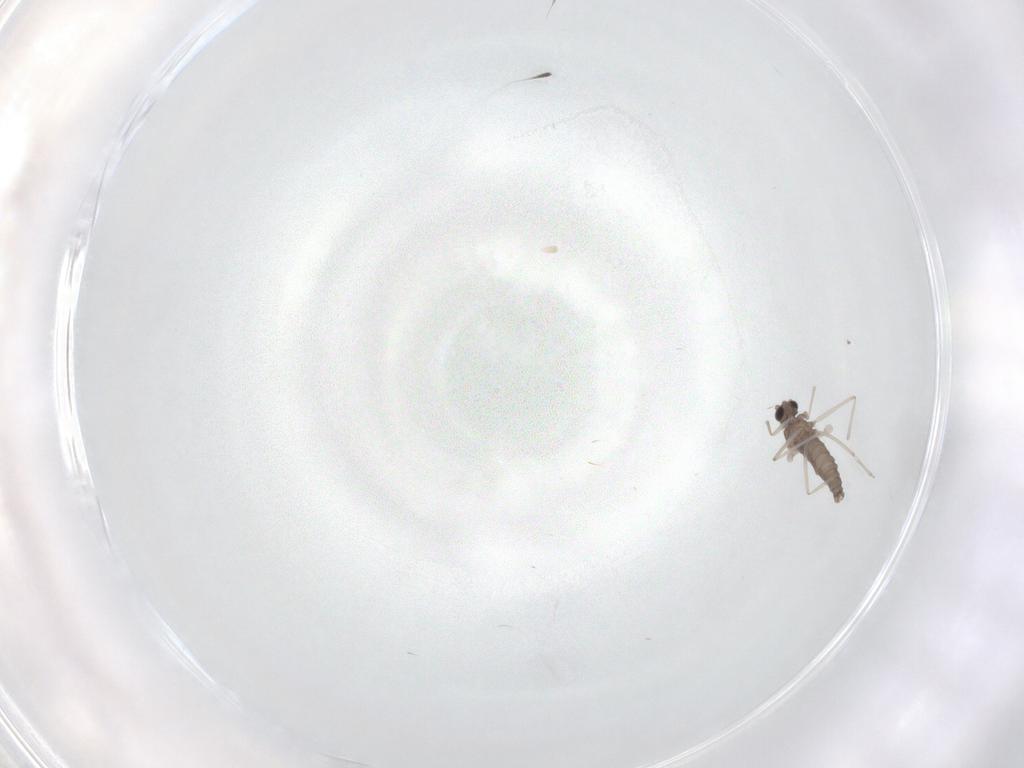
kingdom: Animalia
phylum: Arthropoda
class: Insecta
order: Diptera
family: Cecidomyiidae
